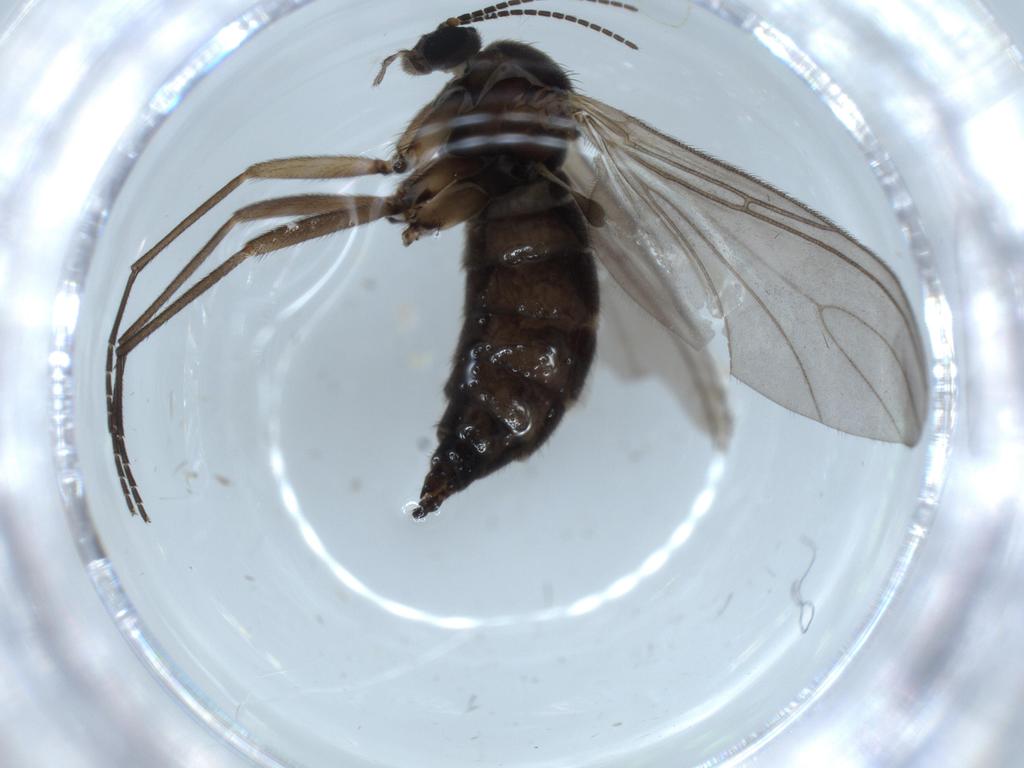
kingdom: Animalia
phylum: Arthropoda
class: Insecta
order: Diptera
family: Sciaridae
